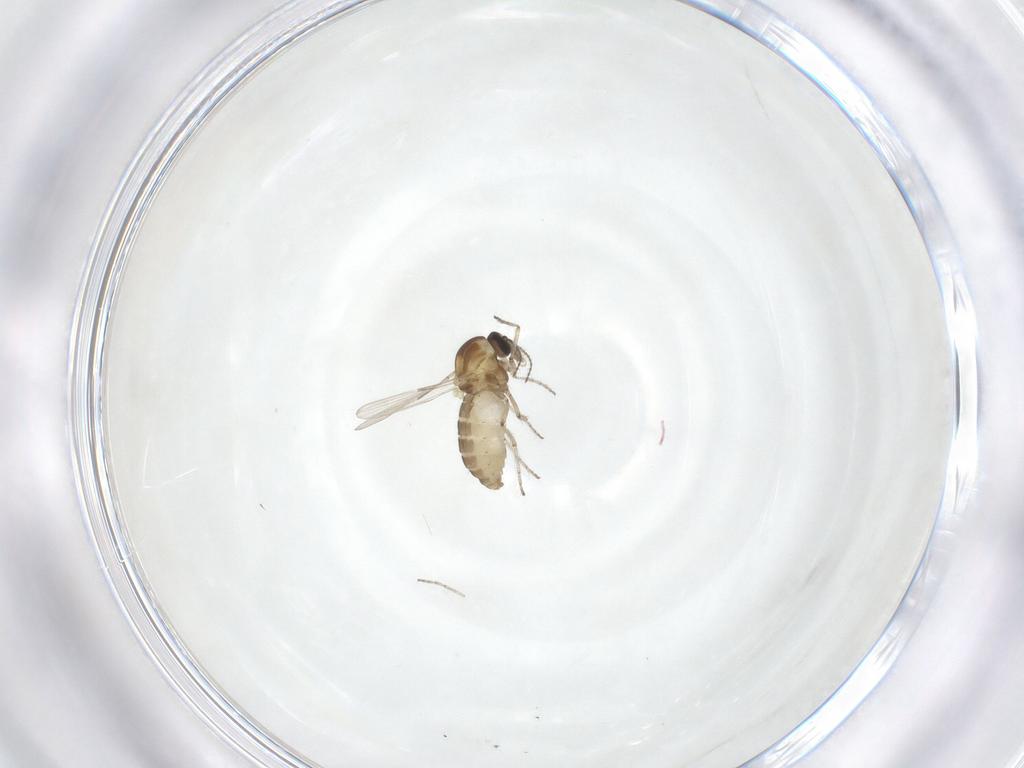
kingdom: Animalia
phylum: Arthropoda
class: Insecta
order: Diptera
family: Ceratopogonidae
